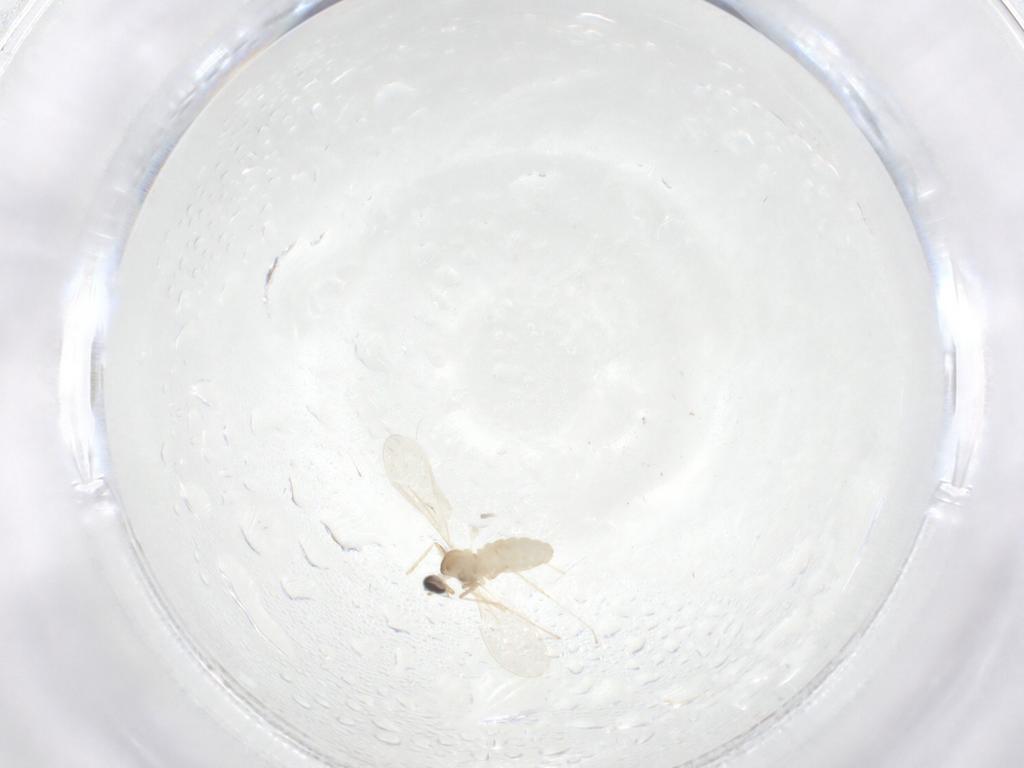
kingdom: Animalia
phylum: Arthropoda
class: Insecta
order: Diptera
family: Cecidomyiidae
